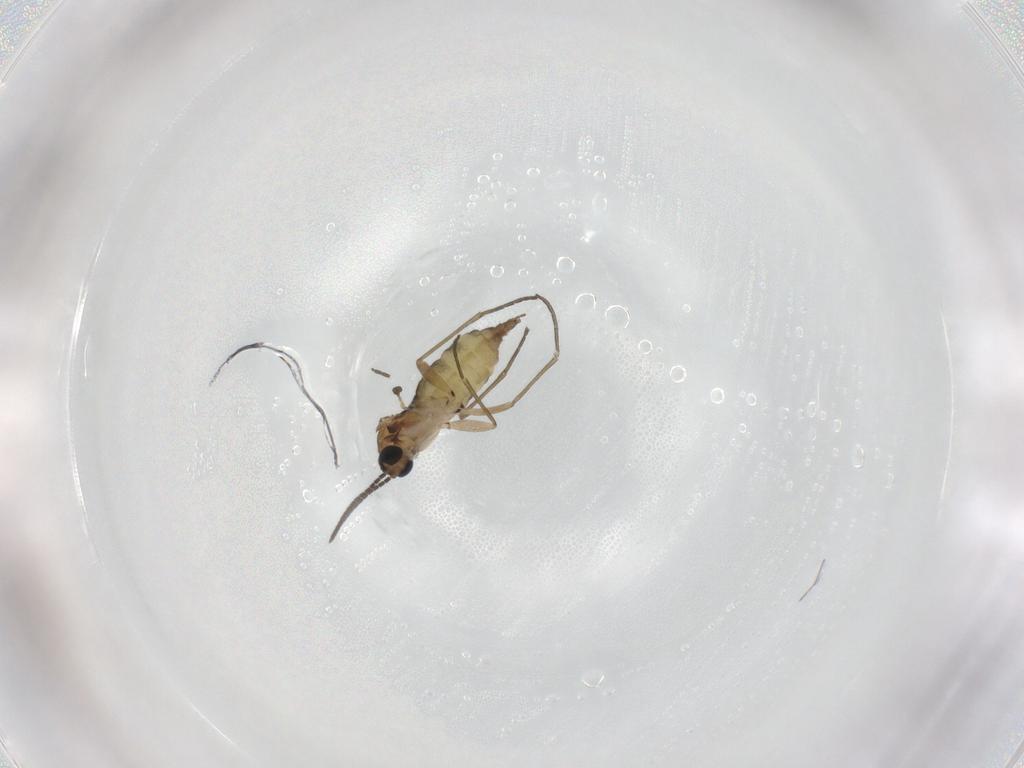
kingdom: Animalia
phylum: Arthropoda
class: Insecta
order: Diptera
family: Sciaridae
